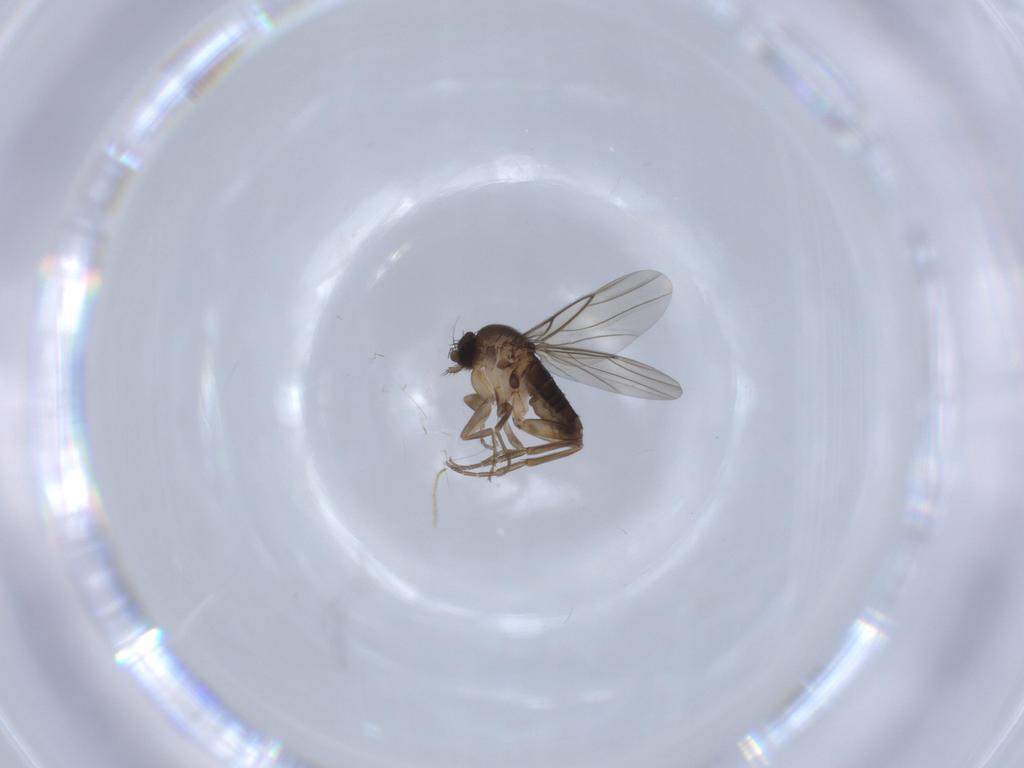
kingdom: Animalia
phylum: Arthropoda
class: Insecta
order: Diptera
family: Phoridae
